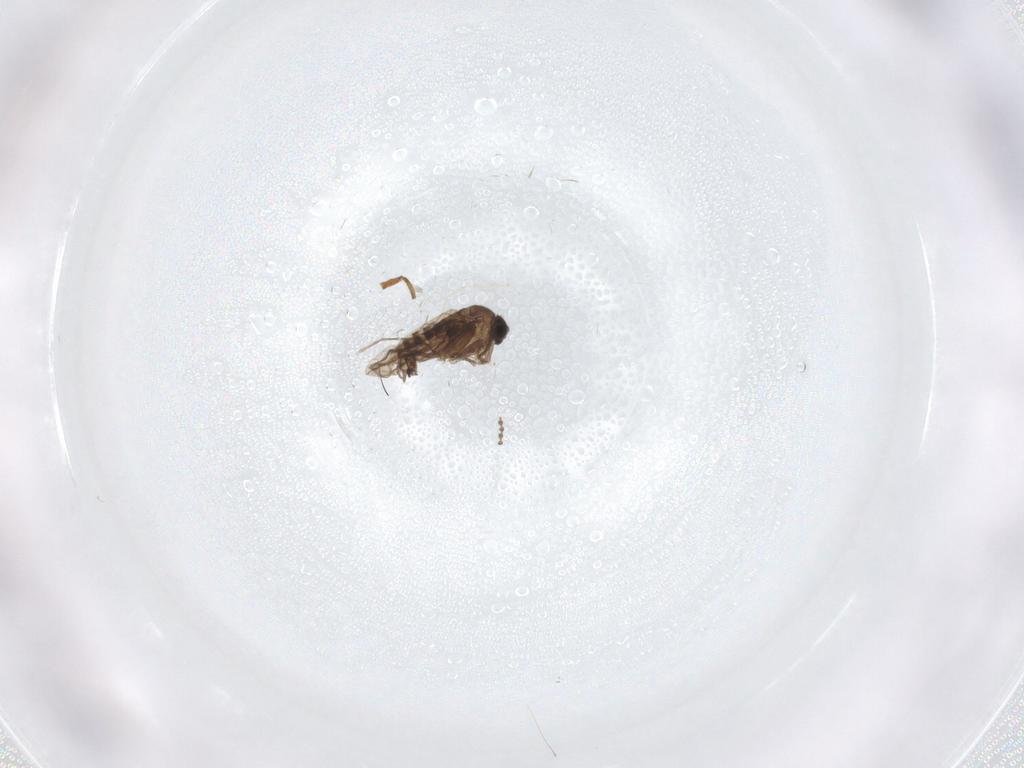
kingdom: Animalia
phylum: Arthropoda
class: Insecta
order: Diptera
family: Phoridae
